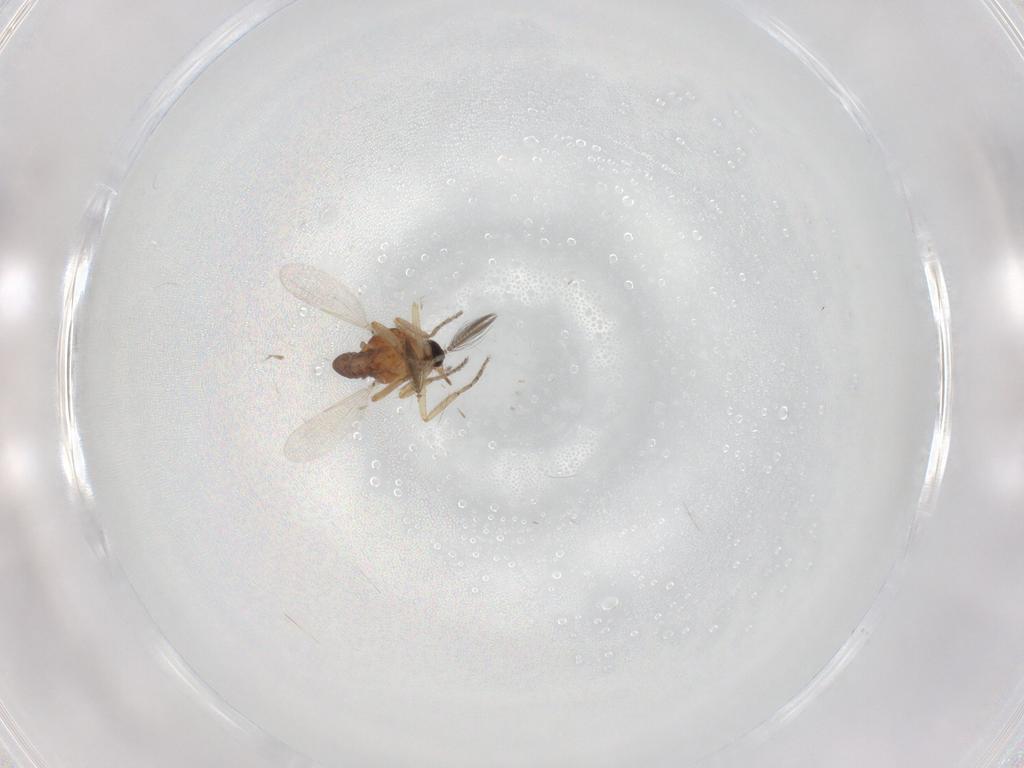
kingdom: Animalia
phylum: Arthropoda
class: Insecta
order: Diptera
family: Ceratopogonidae
